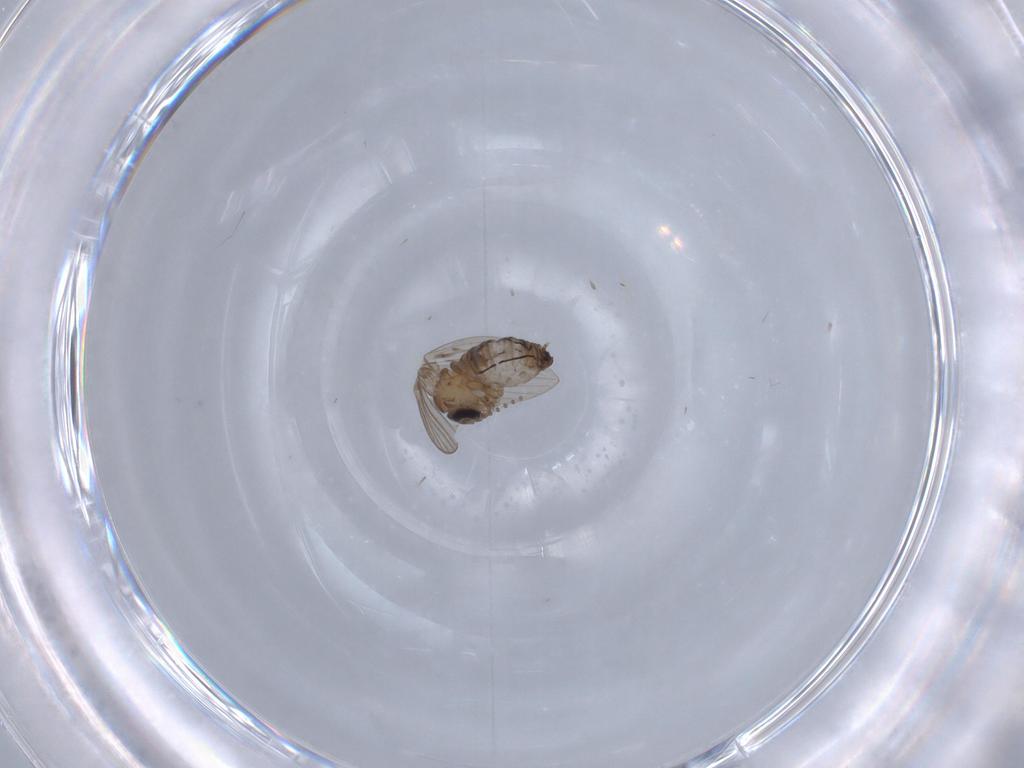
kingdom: Animalia
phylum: Arthropoda
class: Insecta
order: Diptera
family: Psychodidae
